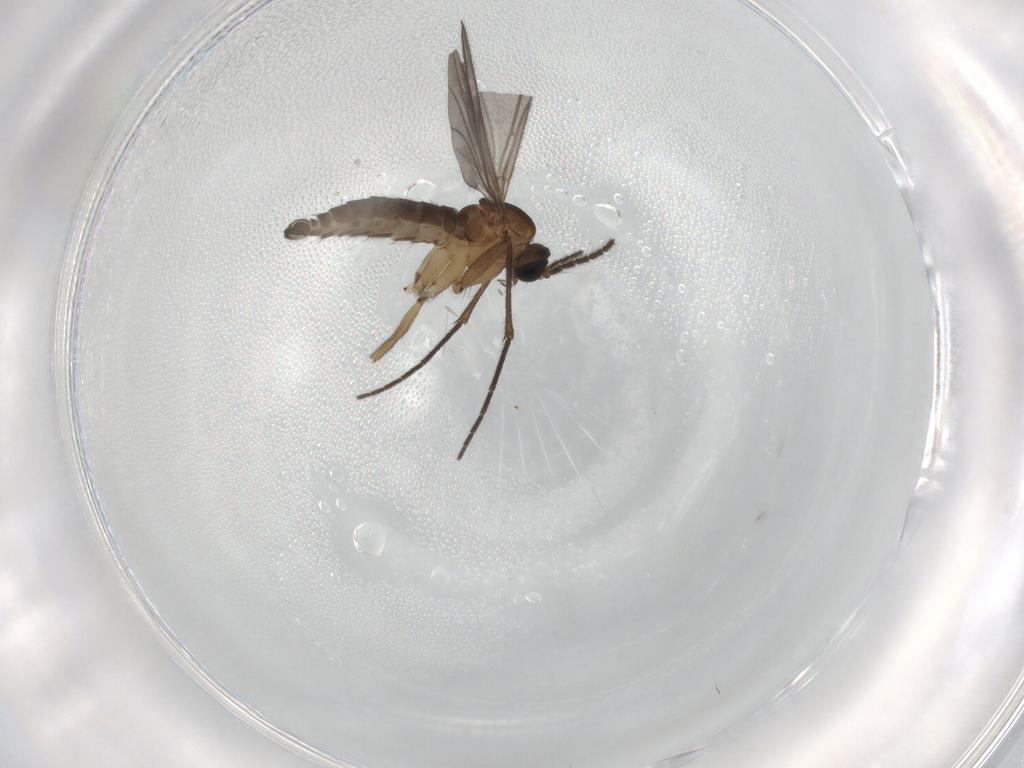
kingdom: Animalia
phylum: Arthropoda
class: Insecta
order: Diptera
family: Sciaridae
